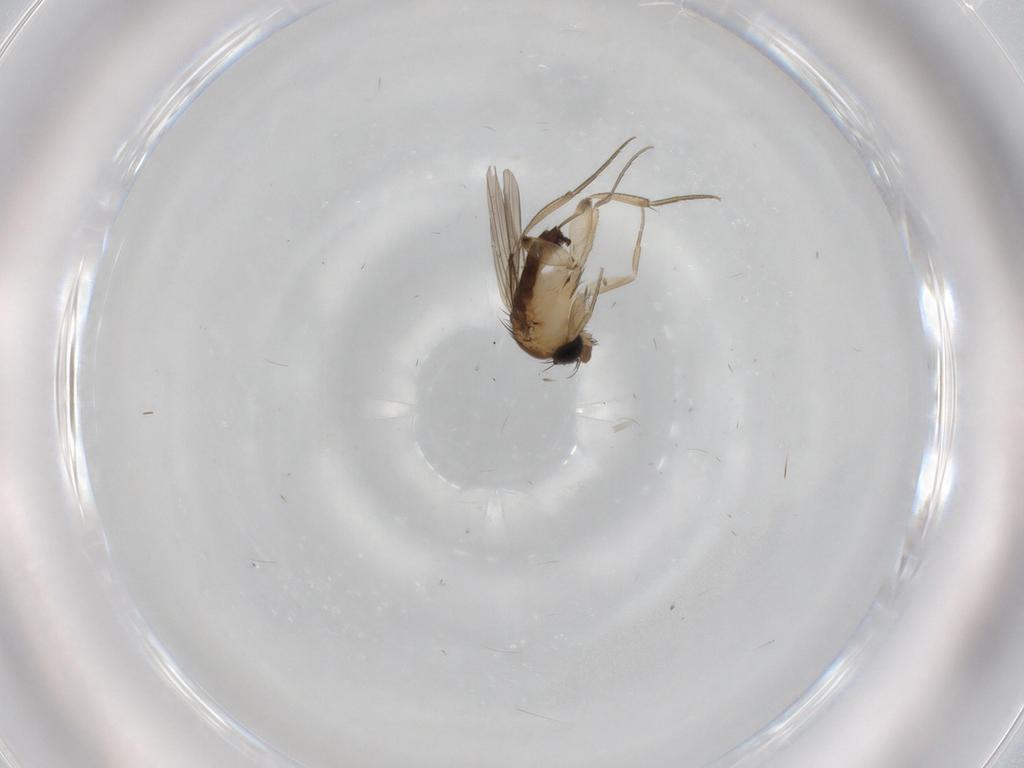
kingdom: Animalia
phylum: Arthropoda
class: Insecta
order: Diptera
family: Phoridae
